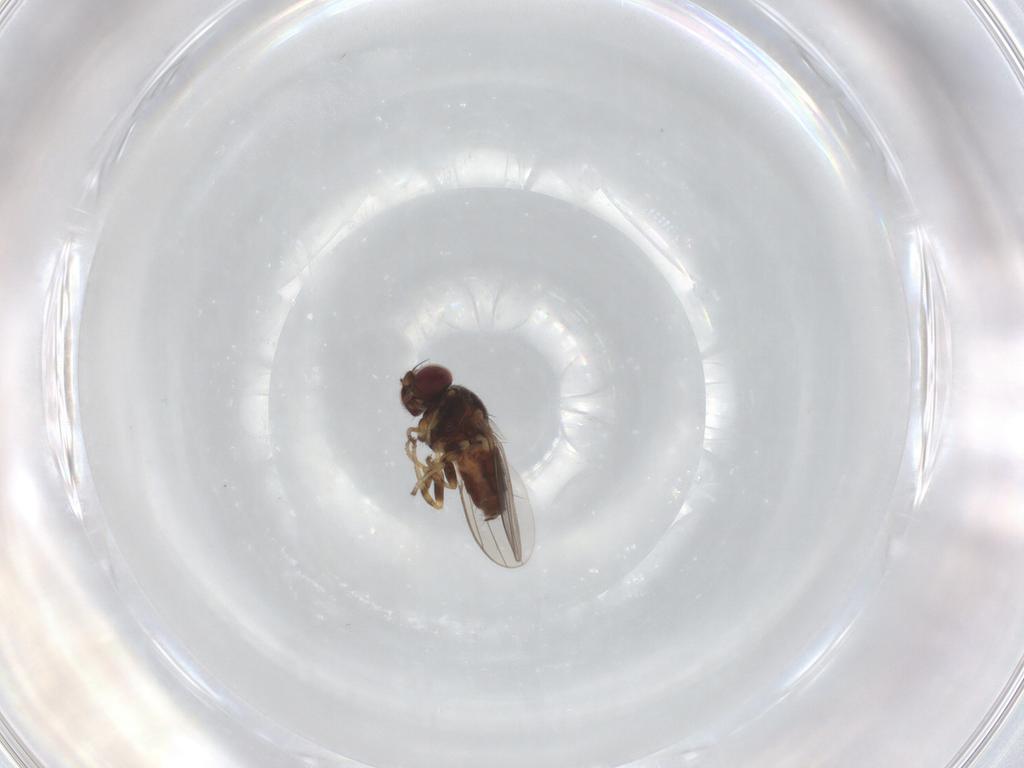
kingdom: Animalia
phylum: Arthropoda
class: Insecta
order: Diptera
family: Chloropidae
